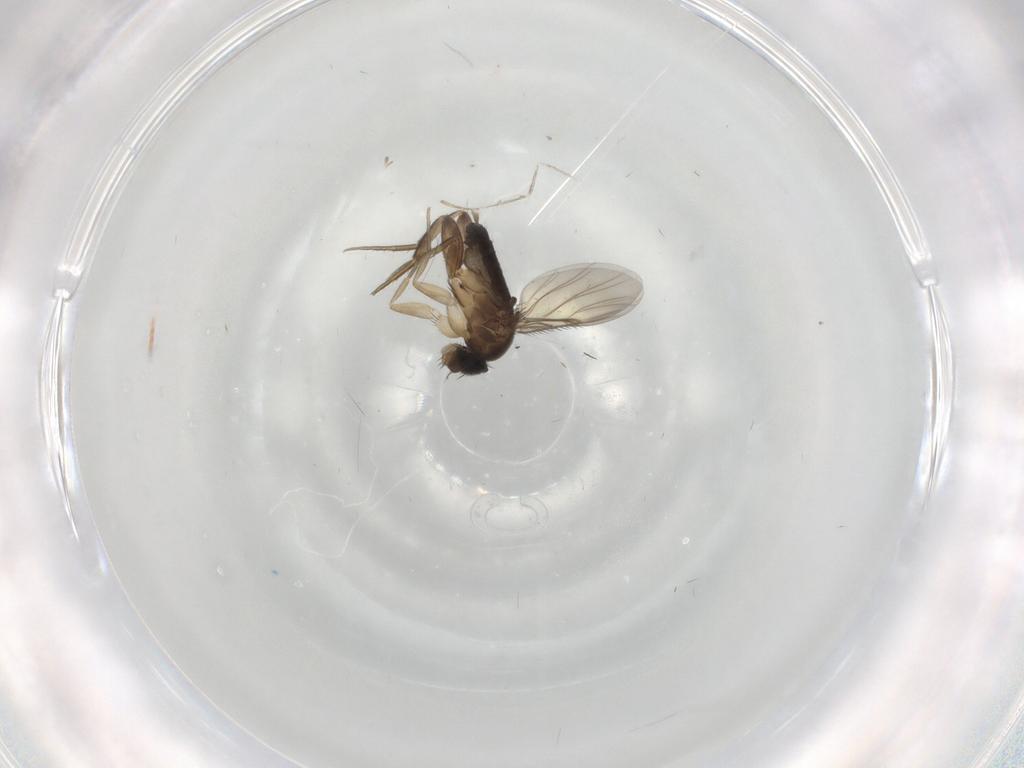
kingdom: Animalia
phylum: Arthropoda
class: Insecta
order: Diptera
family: Phoridae
